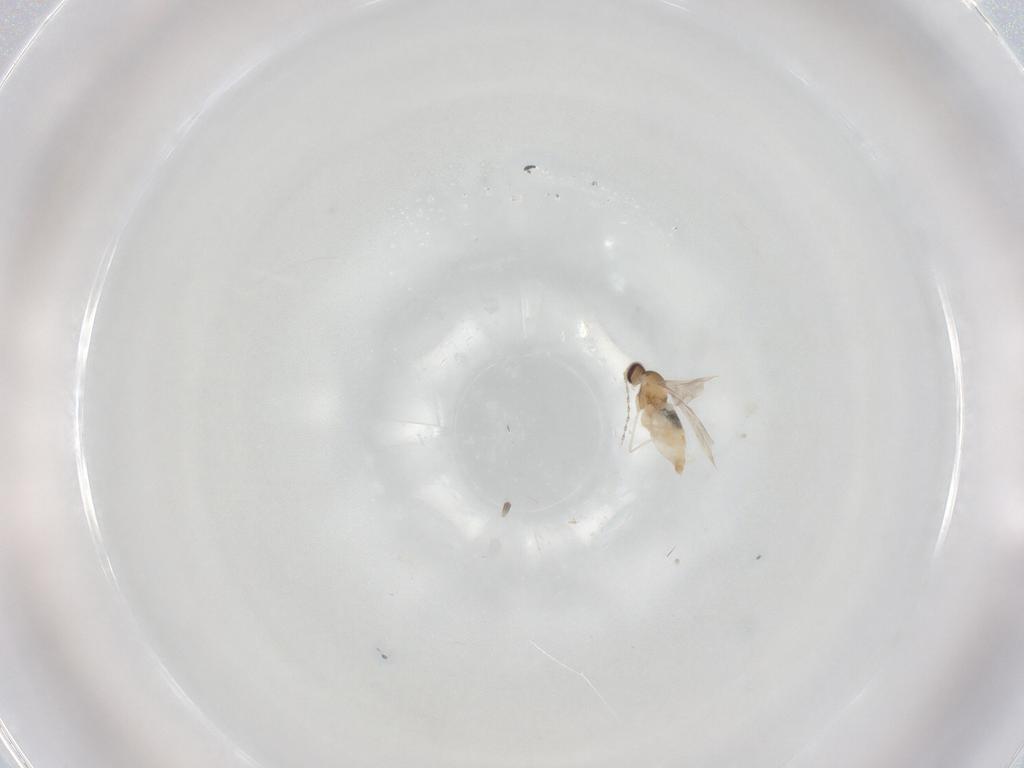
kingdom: Animalia
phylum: Arthropoda
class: Insecta
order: Diptera
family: Cecidomyiidae
